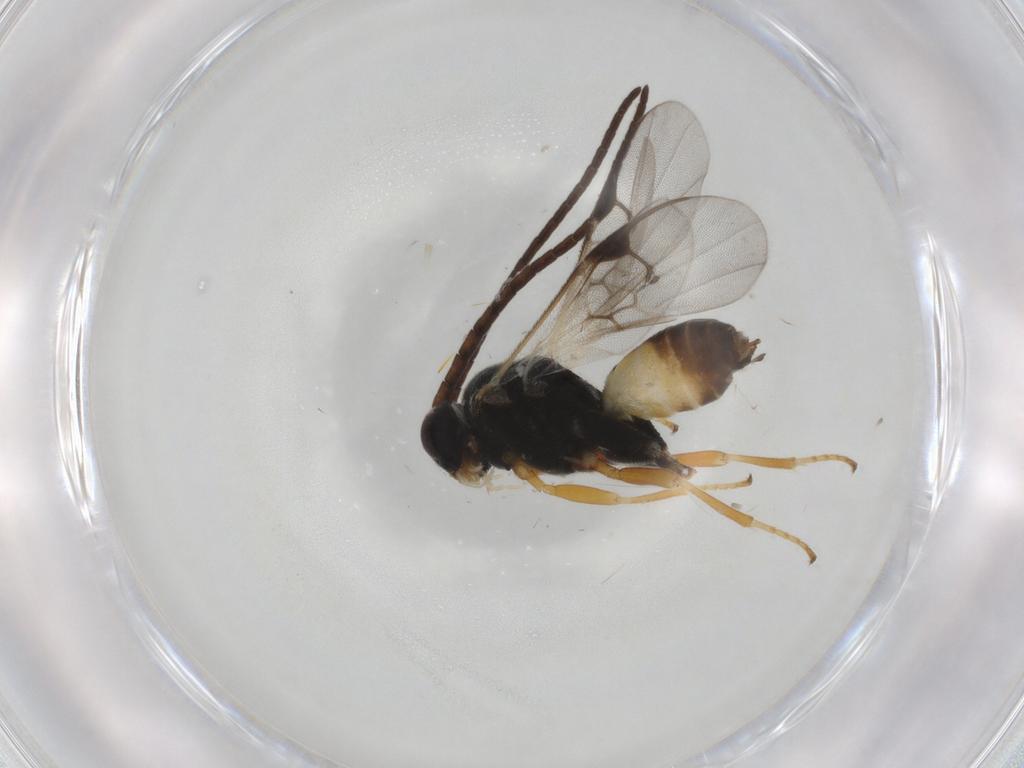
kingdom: Animalia
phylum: Arthropoda
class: Insecta
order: Hymenoptera
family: Braconidae
